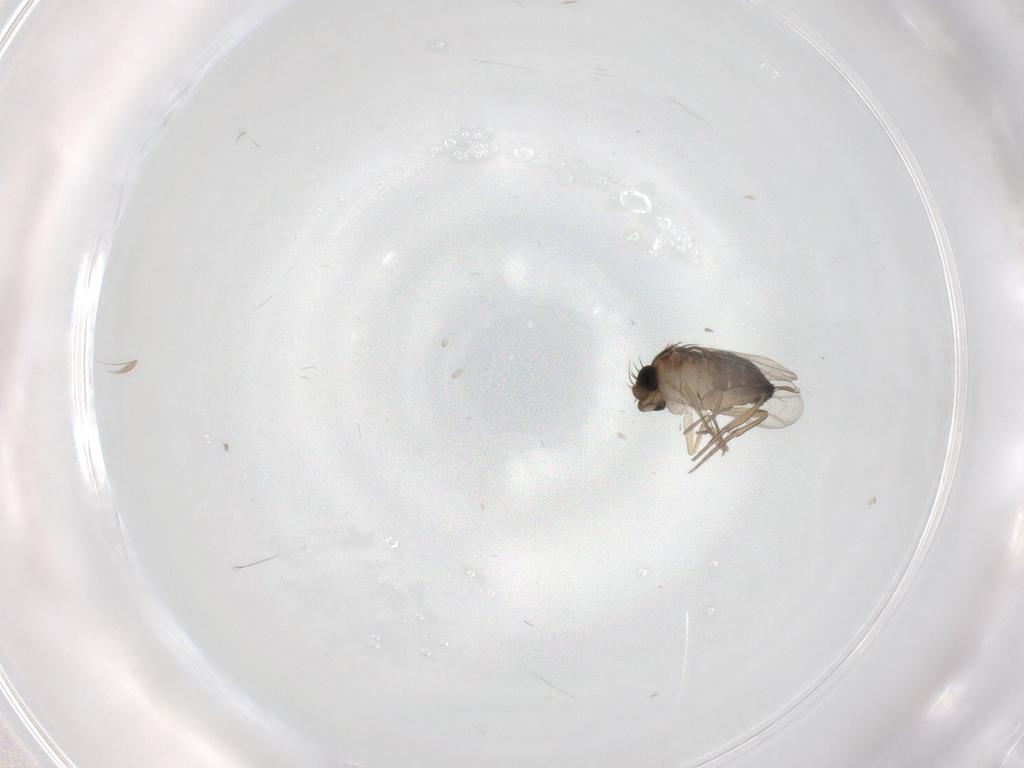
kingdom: Animalia
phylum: Arthropoda
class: Insecta
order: Diptera
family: Phoridae
